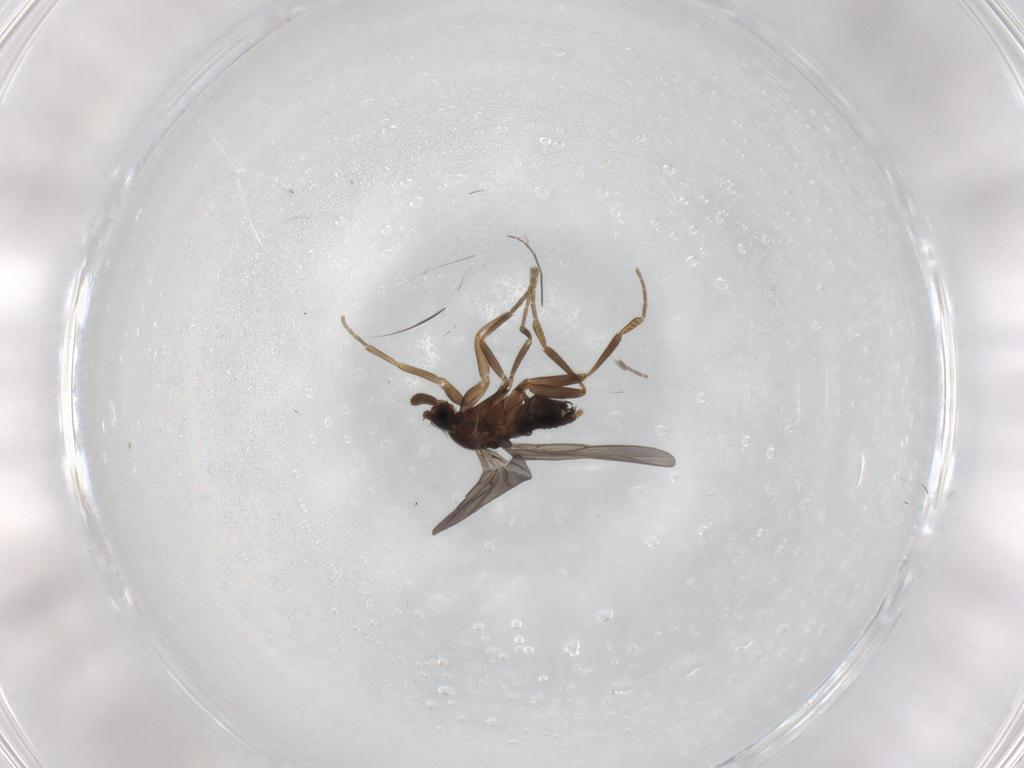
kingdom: Animalia
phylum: Arthropoda
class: Insecta
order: Diptera
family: Chironomidae
